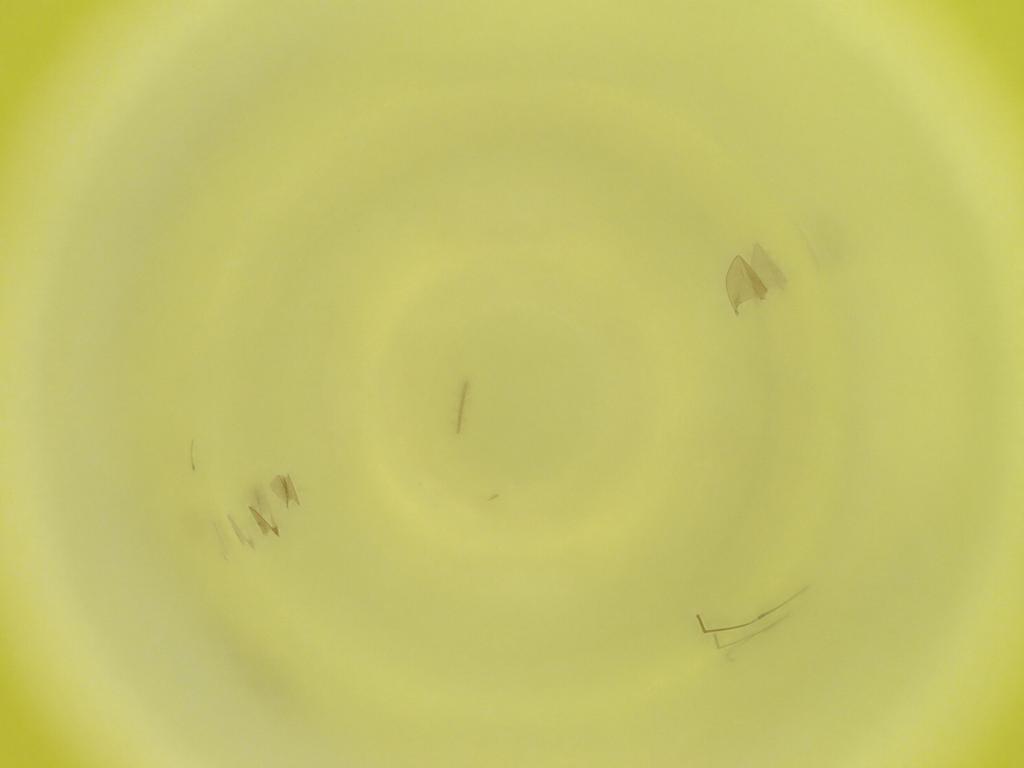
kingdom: Animalia
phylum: Arthropoda
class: Insecta
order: Diptera
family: Cecidomyiidae
